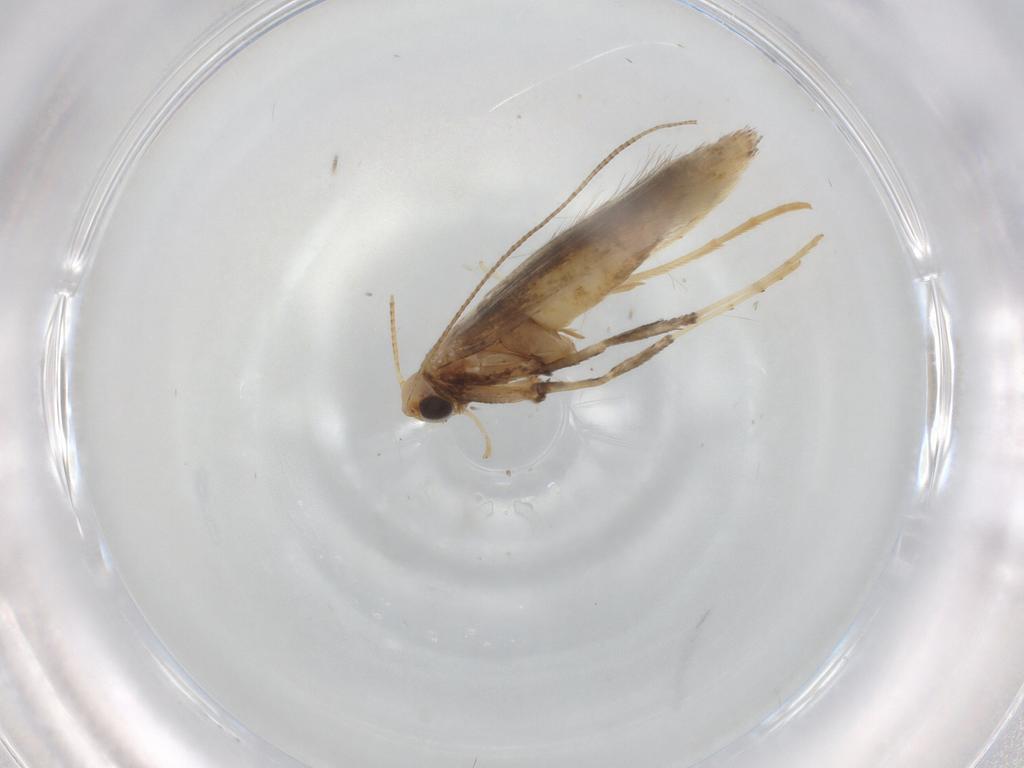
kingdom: Animalia
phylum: Arthropoda
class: Insecta
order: Lepidoptera
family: Gracillariidae
